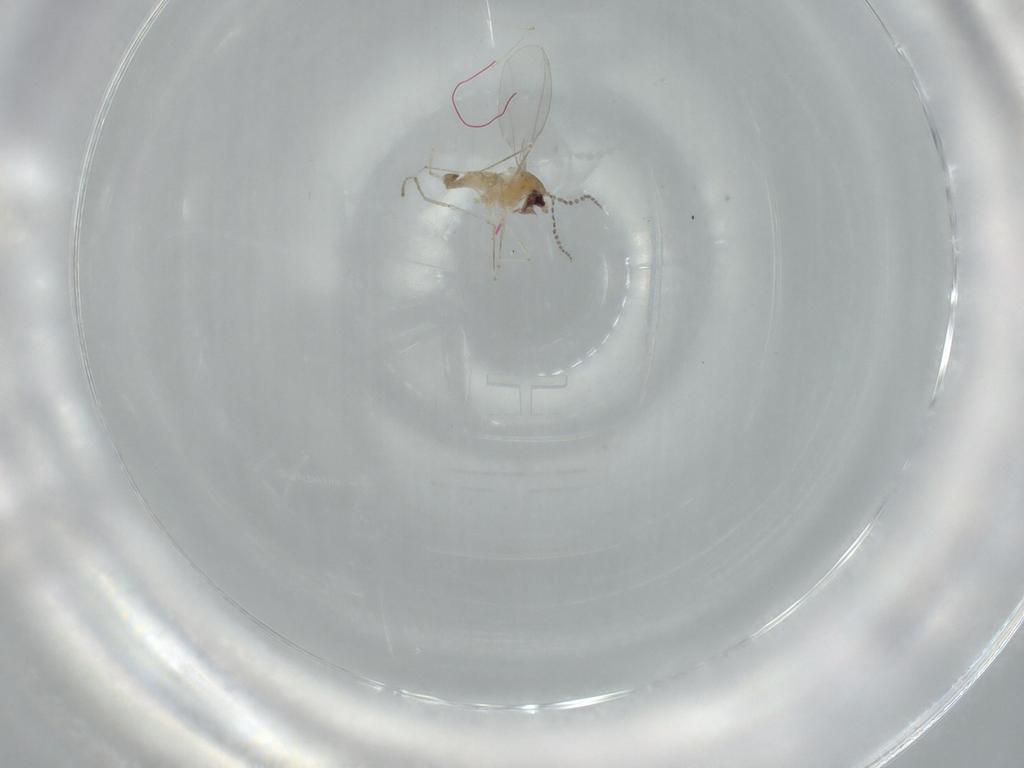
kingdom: Animalia
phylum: Arthropoda
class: Insecta
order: Diptera
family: Cecidomyiidae
